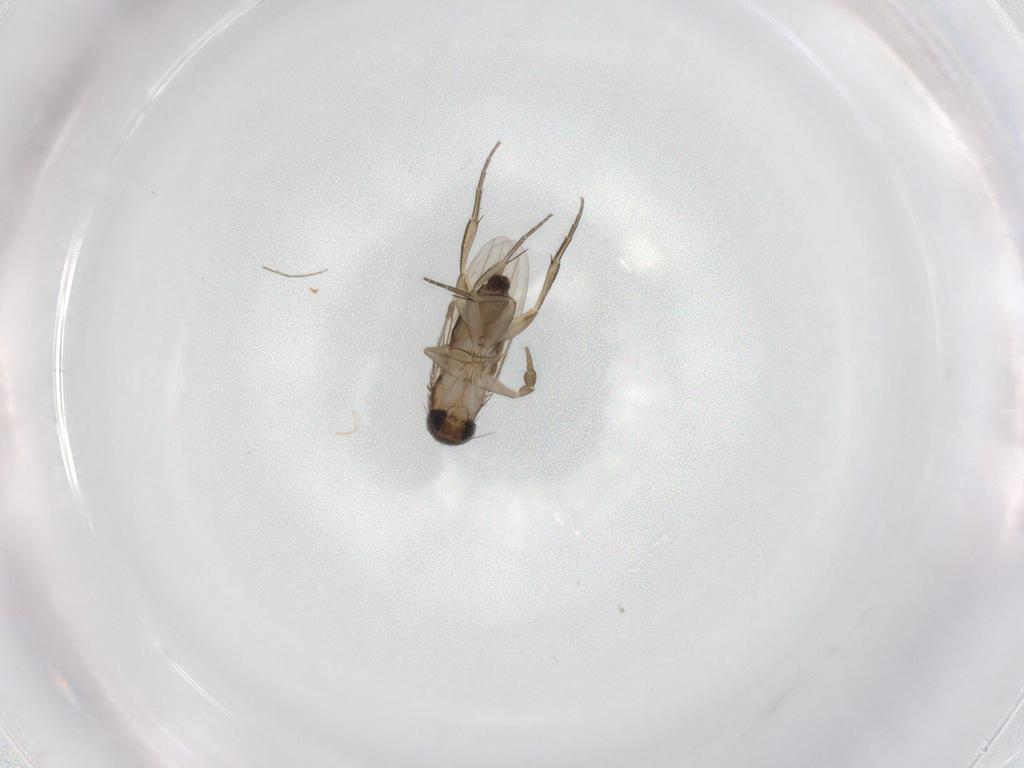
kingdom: Animalia
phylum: Arthropoda
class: Insecta
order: Diptera
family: Phoridae
